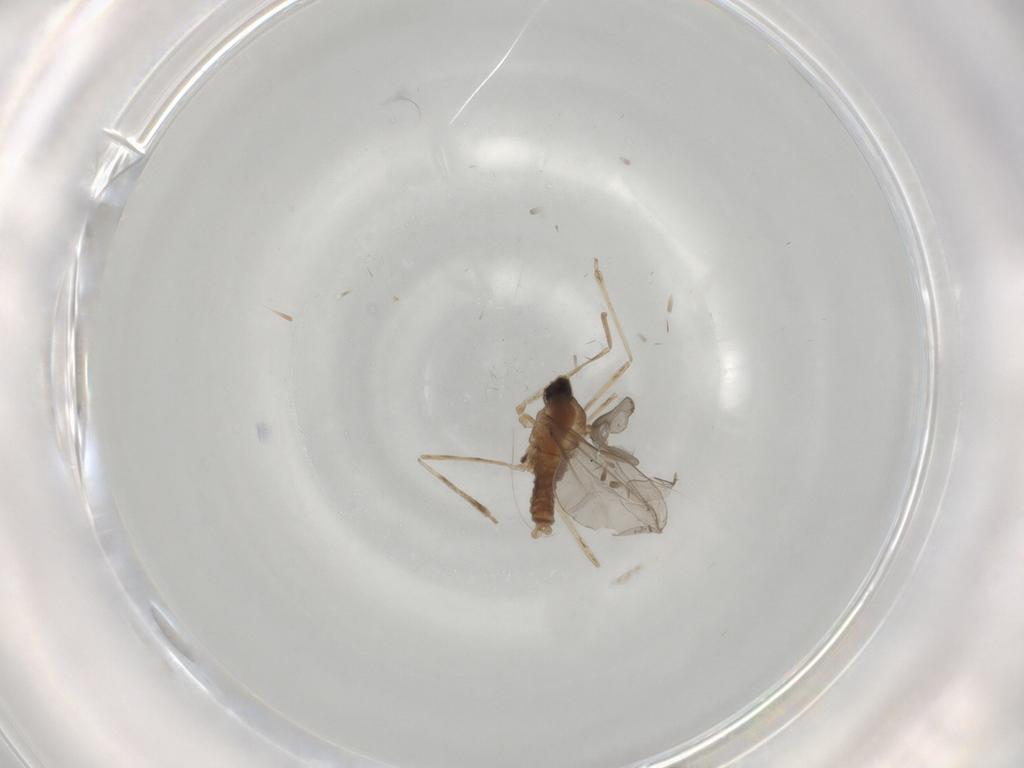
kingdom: Animalia
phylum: Arthropoda
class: Insecta
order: Diptera
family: Cecidomyiidae
